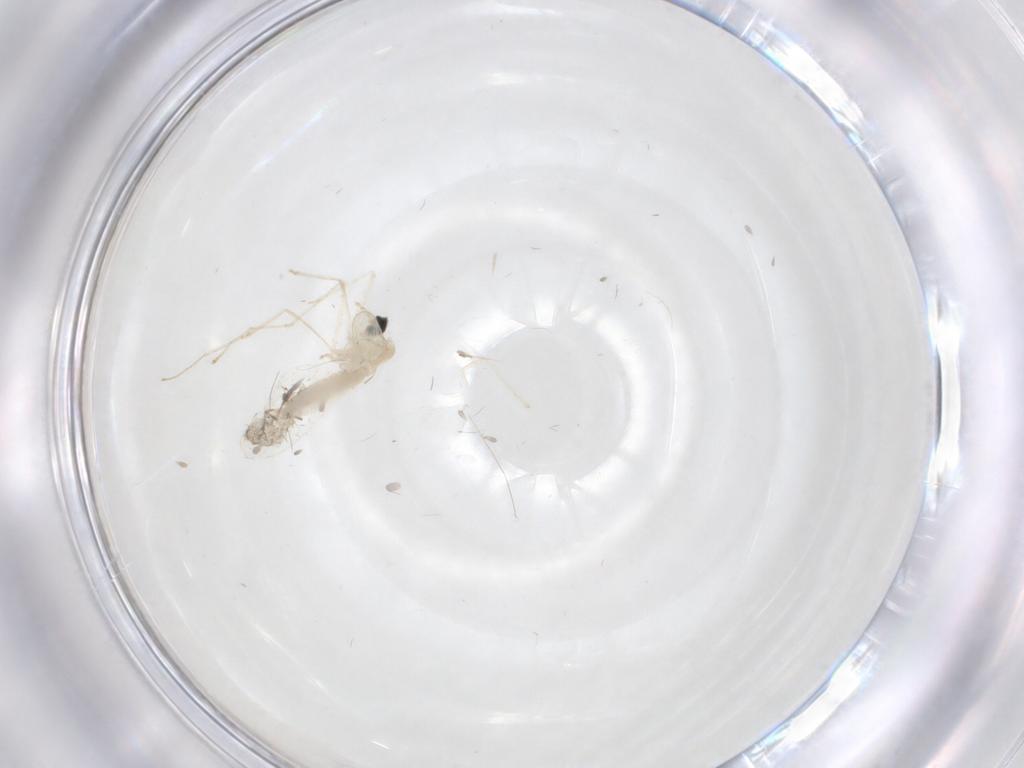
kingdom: Animalia
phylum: Arthropoda
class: Insecta
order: Diptera
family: Cecidomyiidae
